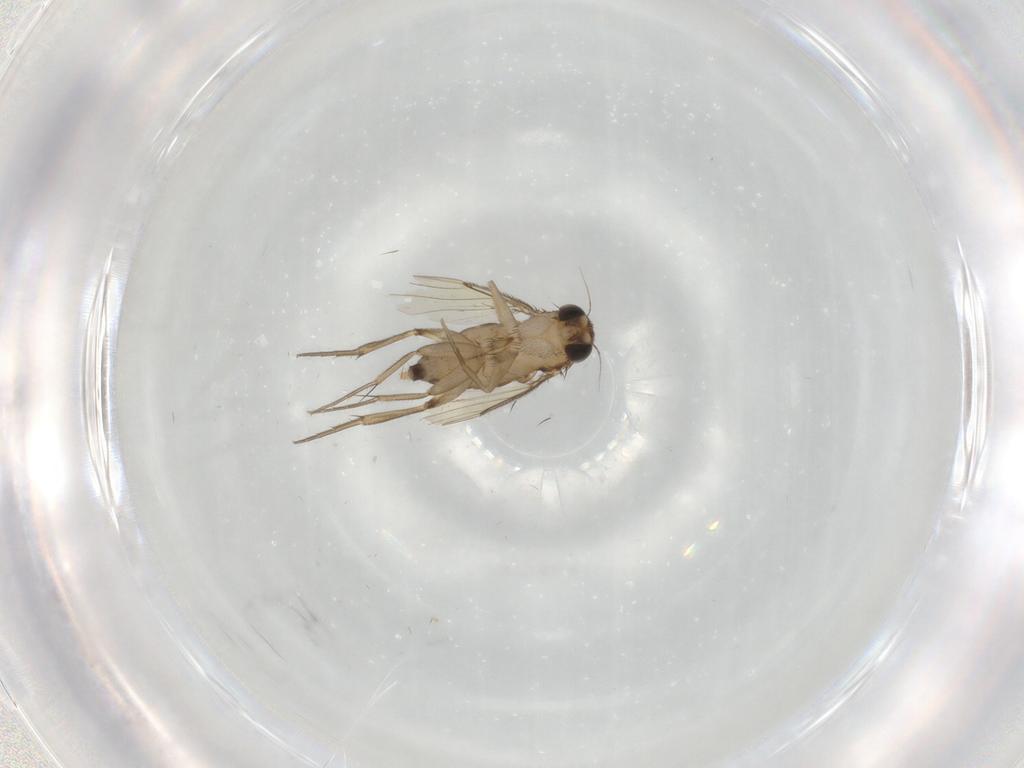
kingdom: Animalia
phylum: Arthropoda
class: Insecta
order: Diptera
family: Phoridae
